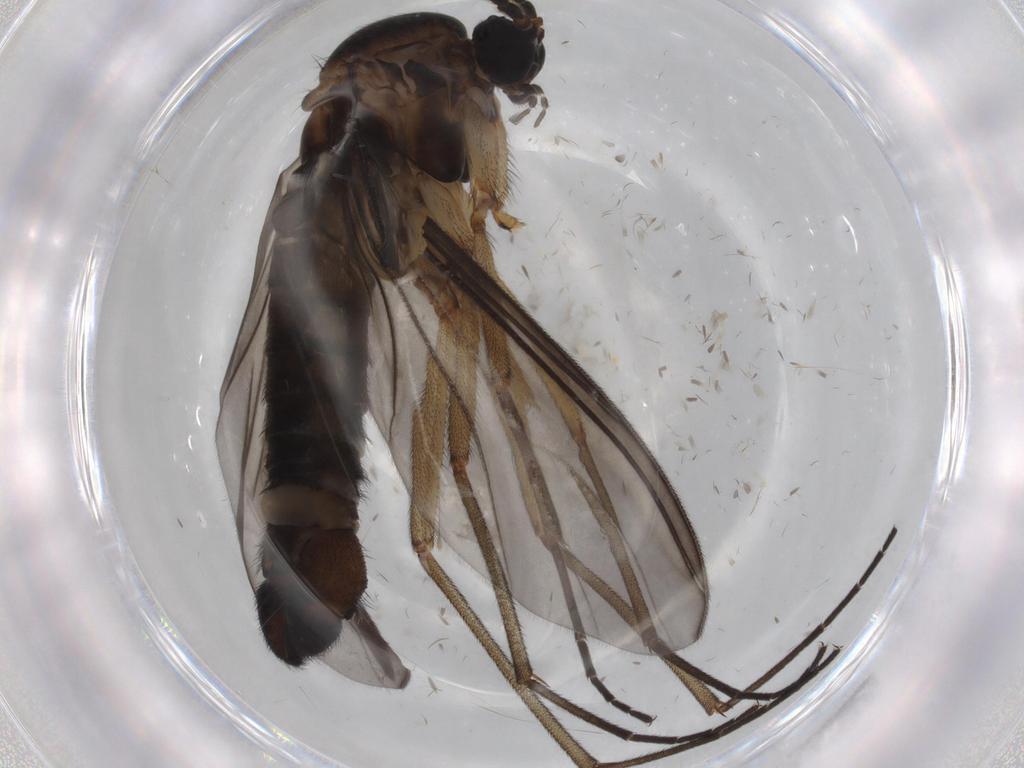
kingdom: Animalia
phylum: Arthropoda
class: Insecta
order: Diptera
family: Sciaridae
